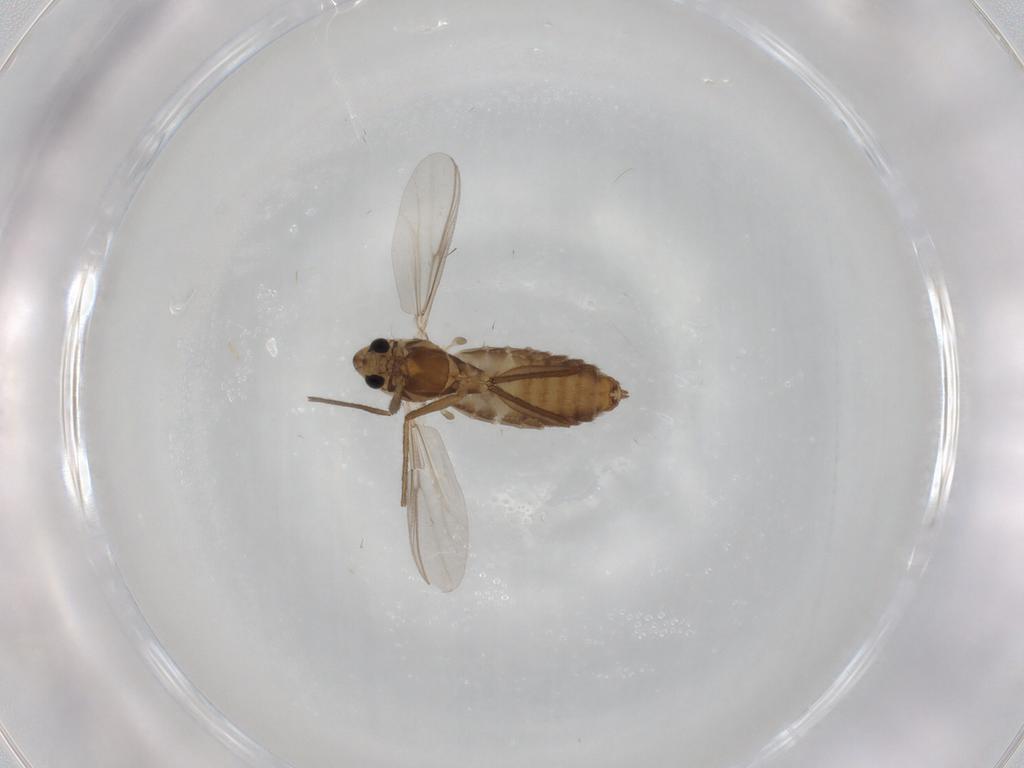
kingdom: Animalia
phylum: Arthropoda
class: Insecta
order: Diptera
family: Chironomidae
